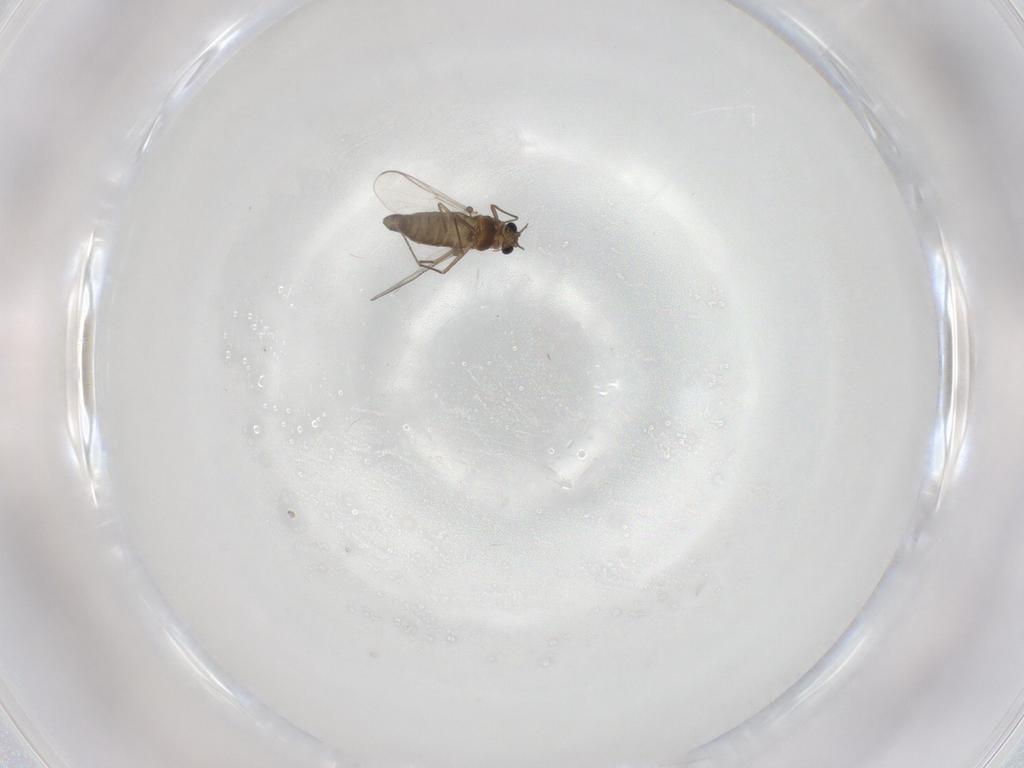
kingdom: Animalia
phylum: Arthropoda
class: Insecta
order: Diptera
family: Chironomidae
